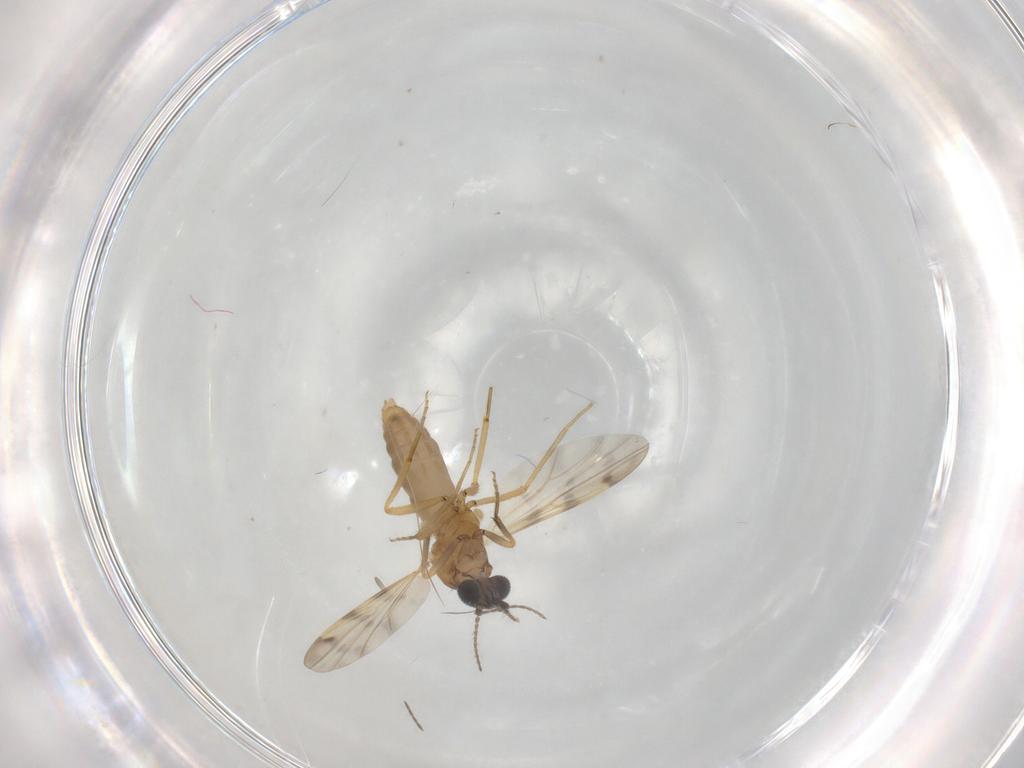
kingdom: Animalia
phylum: Arthropoda
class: Insecta
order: Diptera
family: Ceratopogonidae
